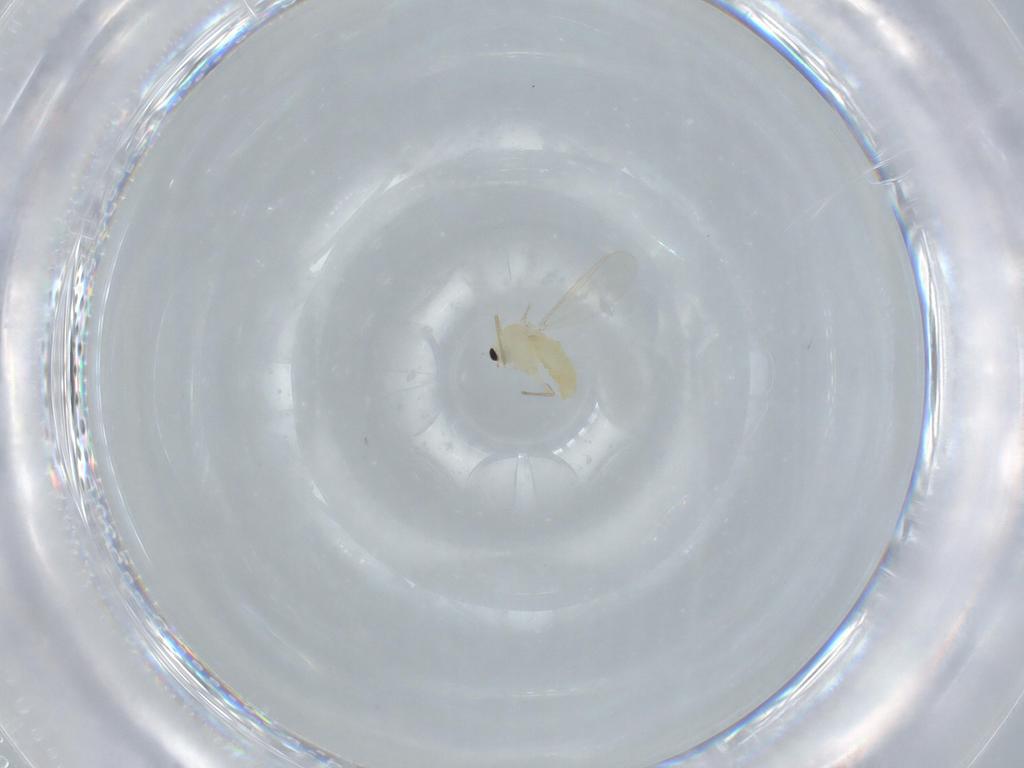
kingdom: Animalia
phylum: Arthropoda
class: Insecta
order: Diptera
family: Chironomidae
